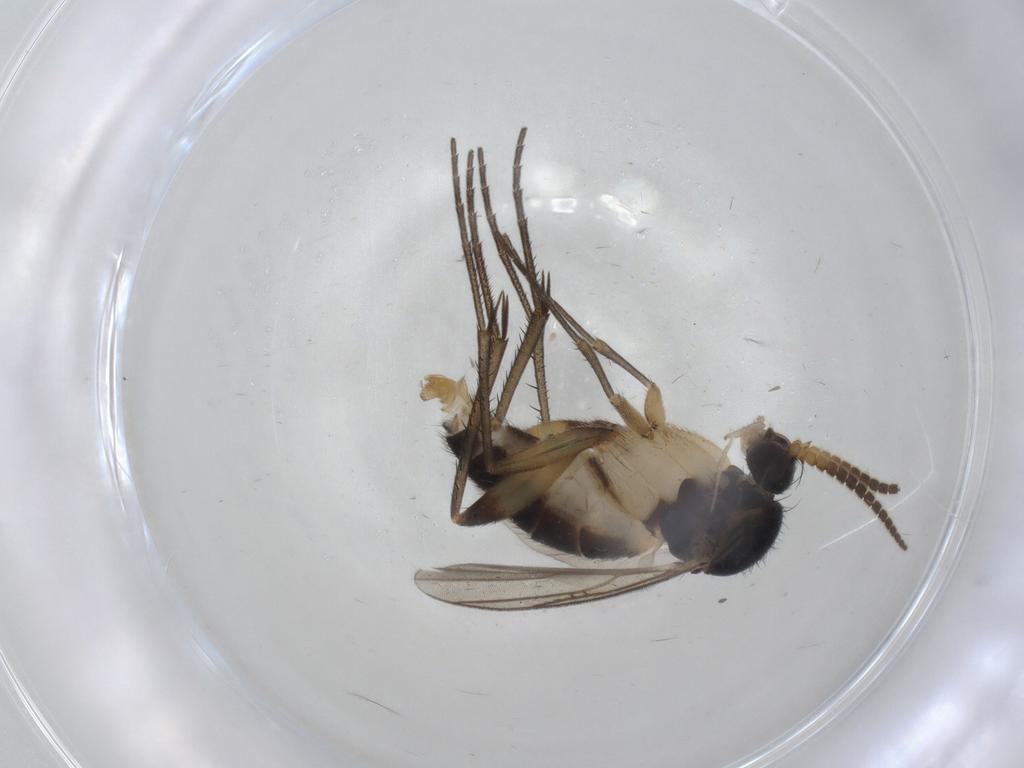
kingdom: Animalia
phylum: Arthropoda
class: Insecta
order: Diptera
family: Mycetophilidae
